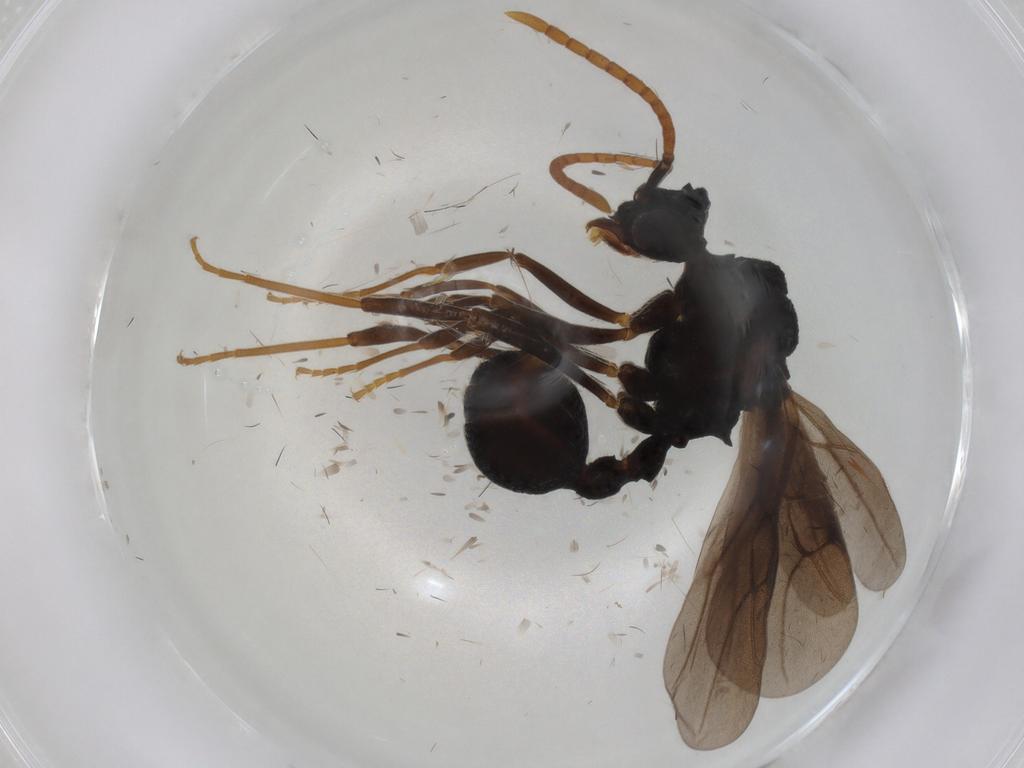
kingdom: Animalia
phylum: Arthropoda
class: Insecta
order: Hymenoptera
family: Formicidae
